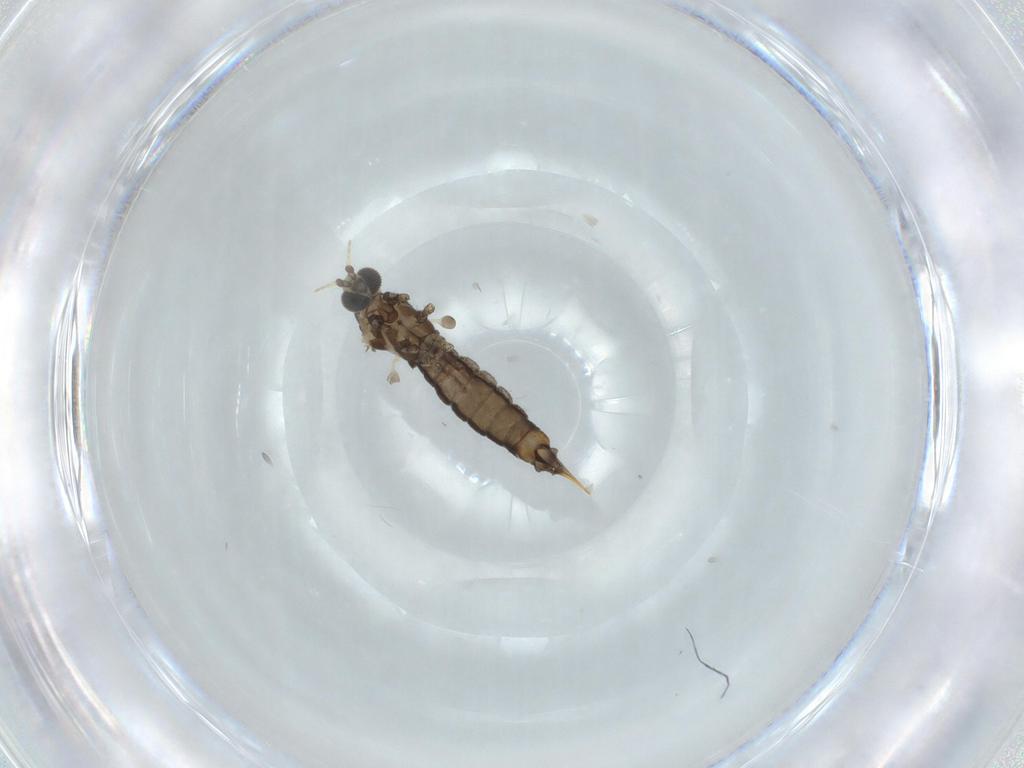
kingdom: Animalia
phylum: Arthropoda
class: Insecta
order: Diptera
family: Limoniidae
